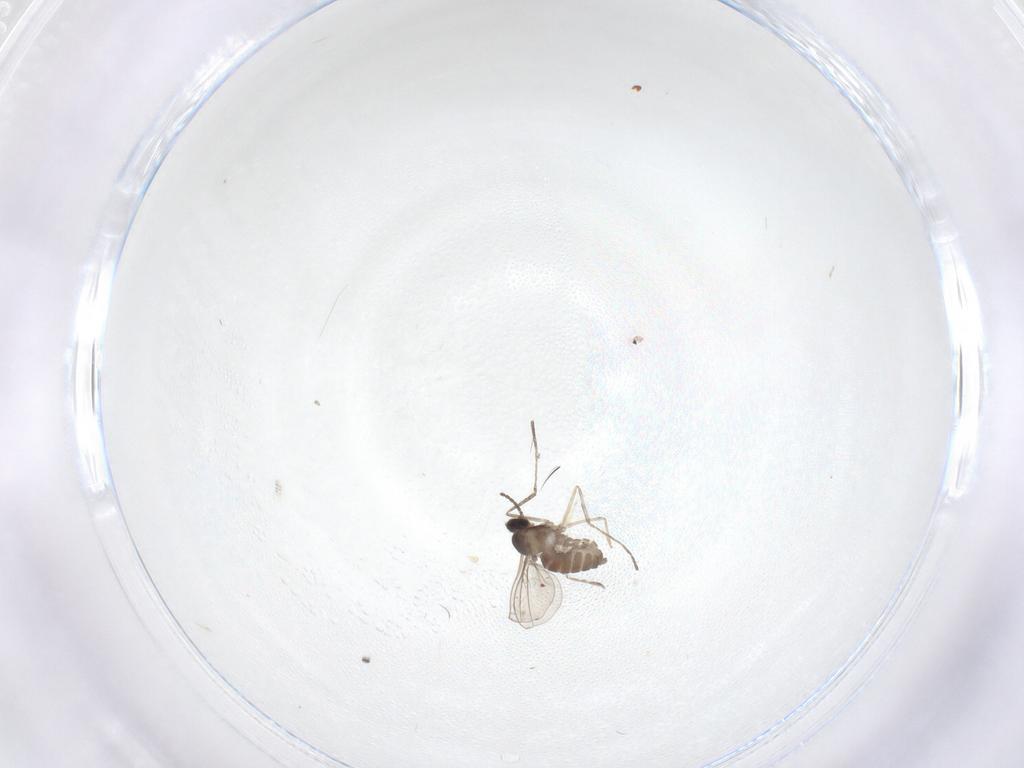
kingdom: Animalia
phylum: Arthropoda
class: Insecta
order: Diptera
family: Cecidomyiidae
